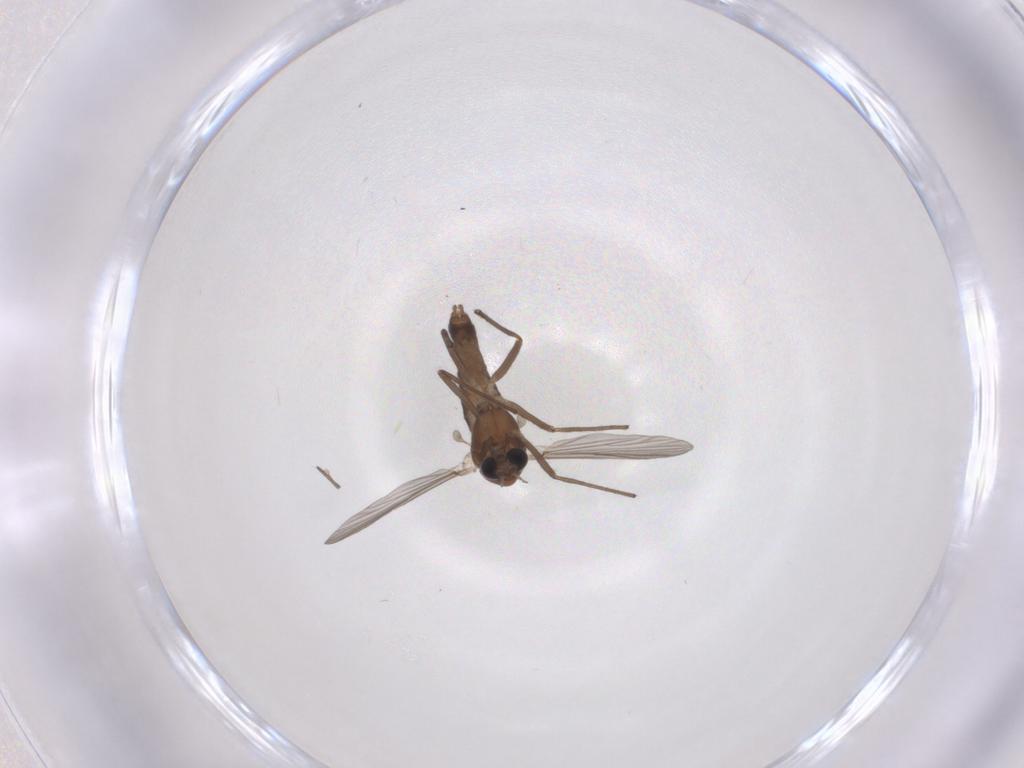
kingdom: Animalia
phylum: Arthropoda
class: Insecta
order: Diptera
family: Chironomidae
